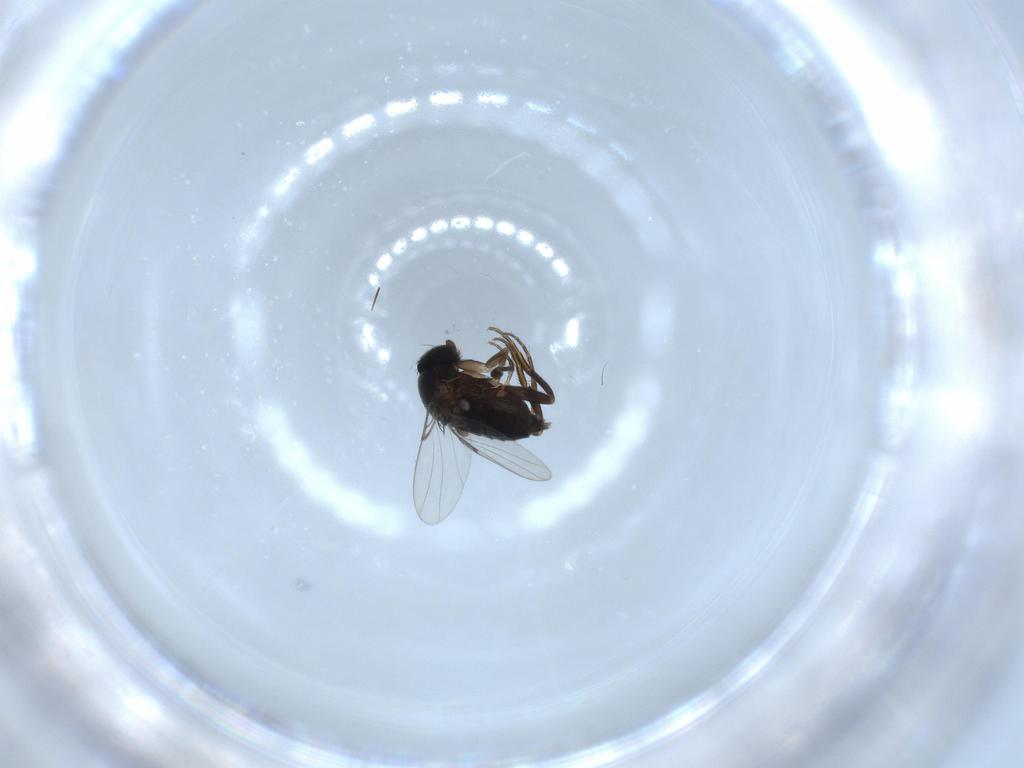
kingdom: Animalia
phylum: Arthropoda
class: Insecta
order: Diptera
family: Phoridae
